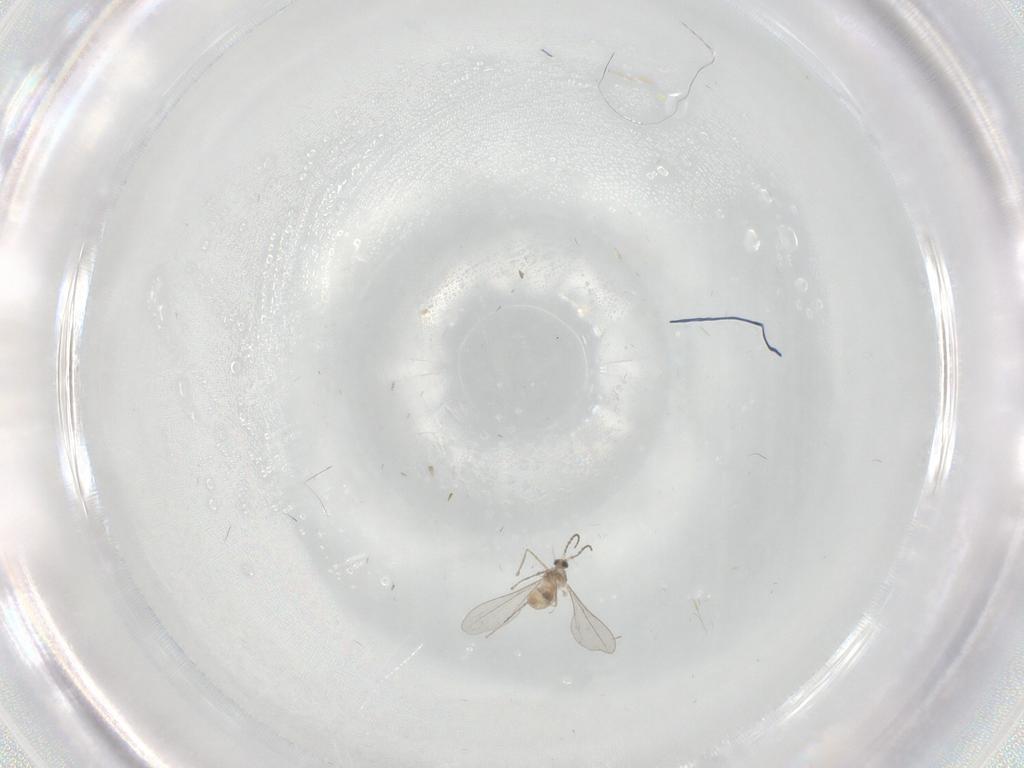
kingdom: Animalia
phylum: Arthropoda
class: Insecta
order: Diptera
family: Cecidomyiidae
